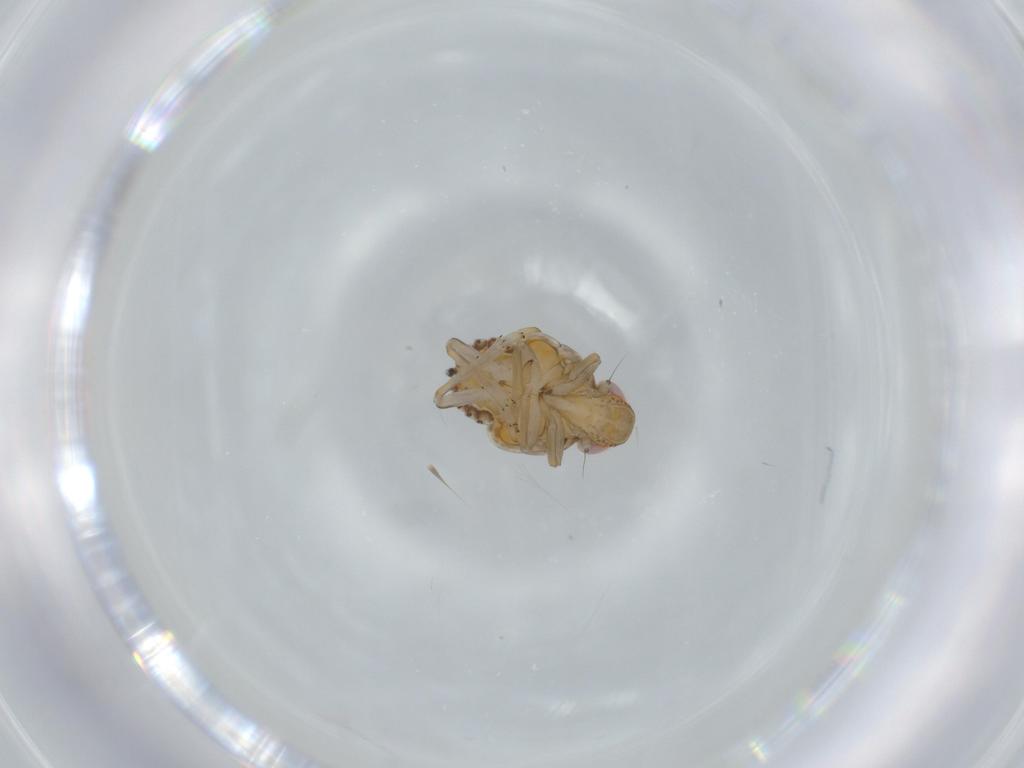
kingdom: Animalia
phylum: Arthropoda
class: Insecta
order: Hemiptera
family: Issidae
